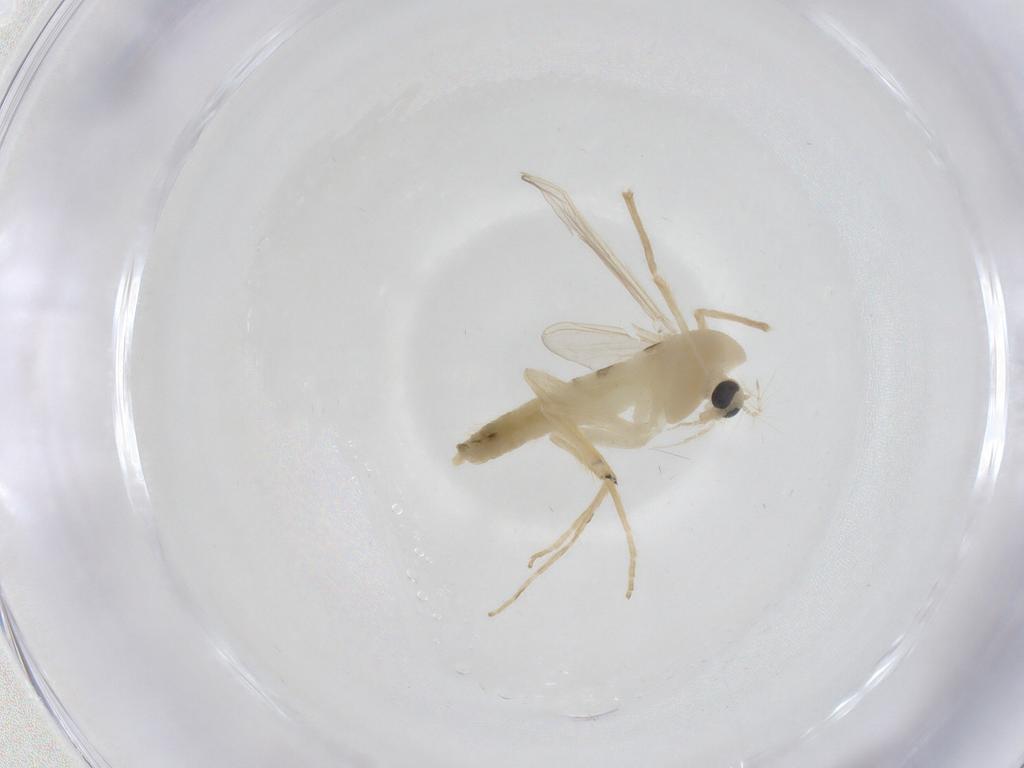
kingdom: Animalia
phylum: Arthropoda
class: Insecta
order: Diptera
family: Chironomidae
